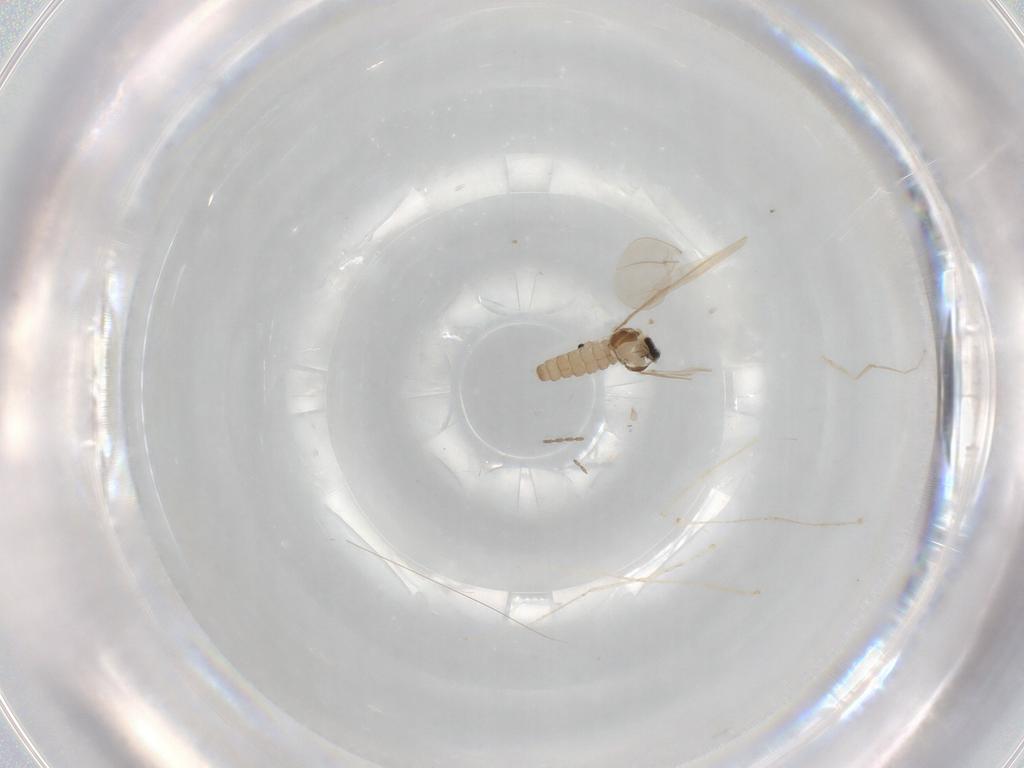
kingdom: Animalia
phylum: Arthropoda
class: Insecta
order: Diptera
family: Cecidomyiidae
